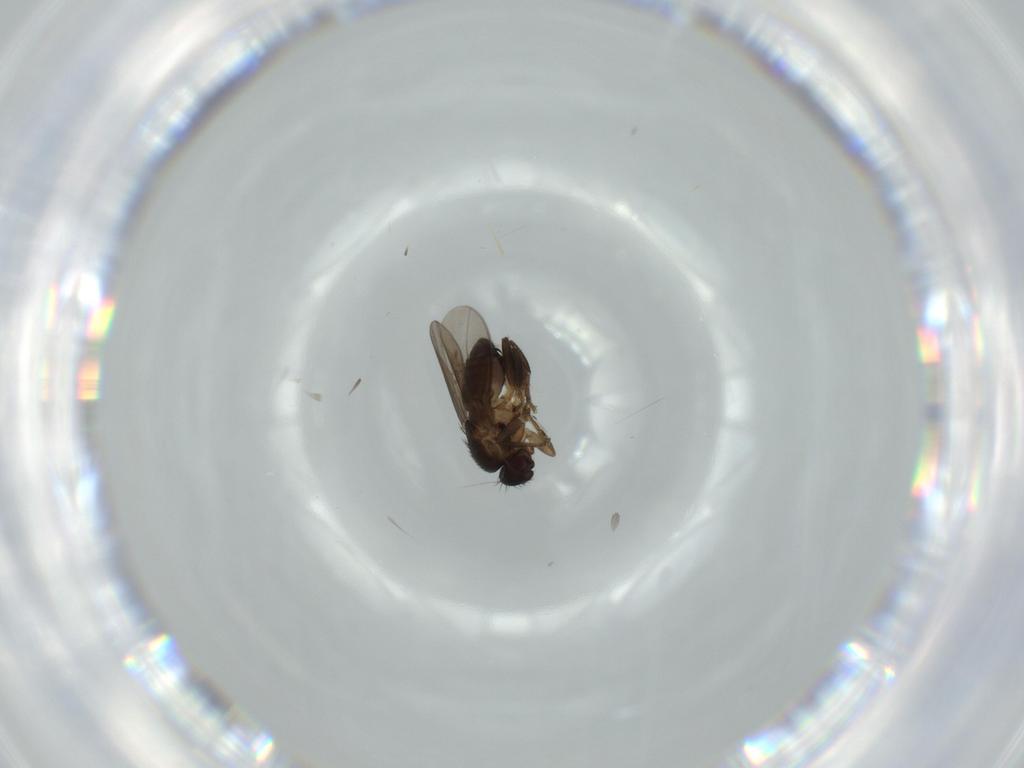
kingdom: Animalia
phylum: Arthropoda
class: Insecta
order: Diptera
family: Sphaeroceridae
